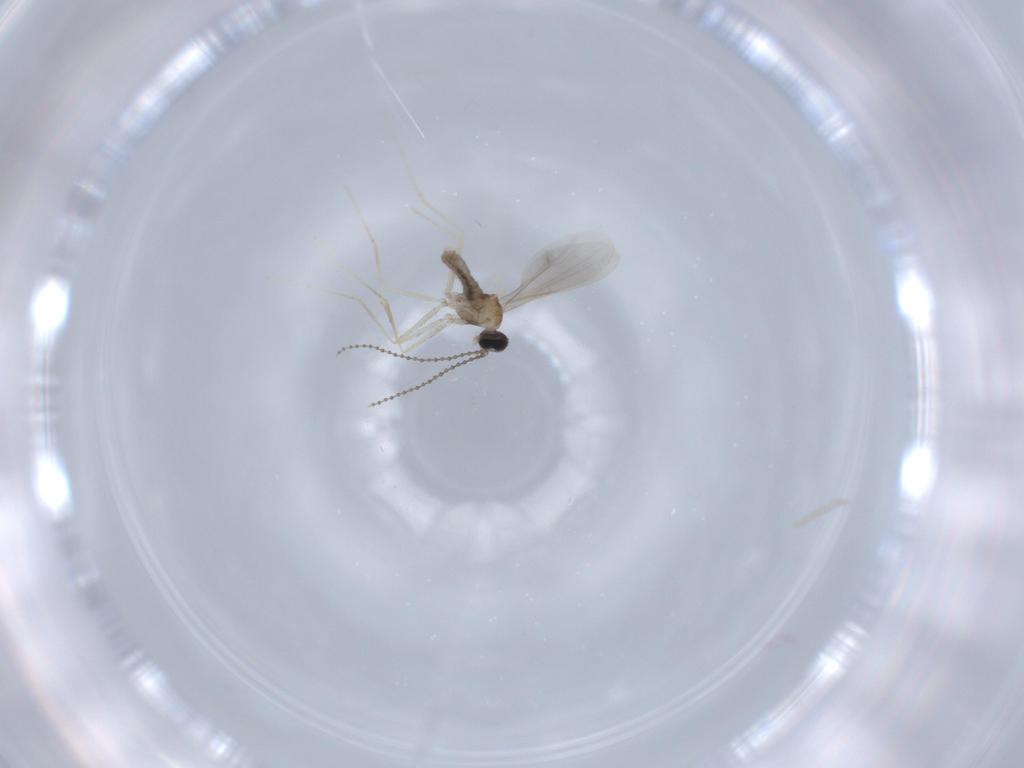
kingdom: Animalia
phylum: Arthropoda
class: Insecta
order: Diptera
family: Cecidomyiidae
